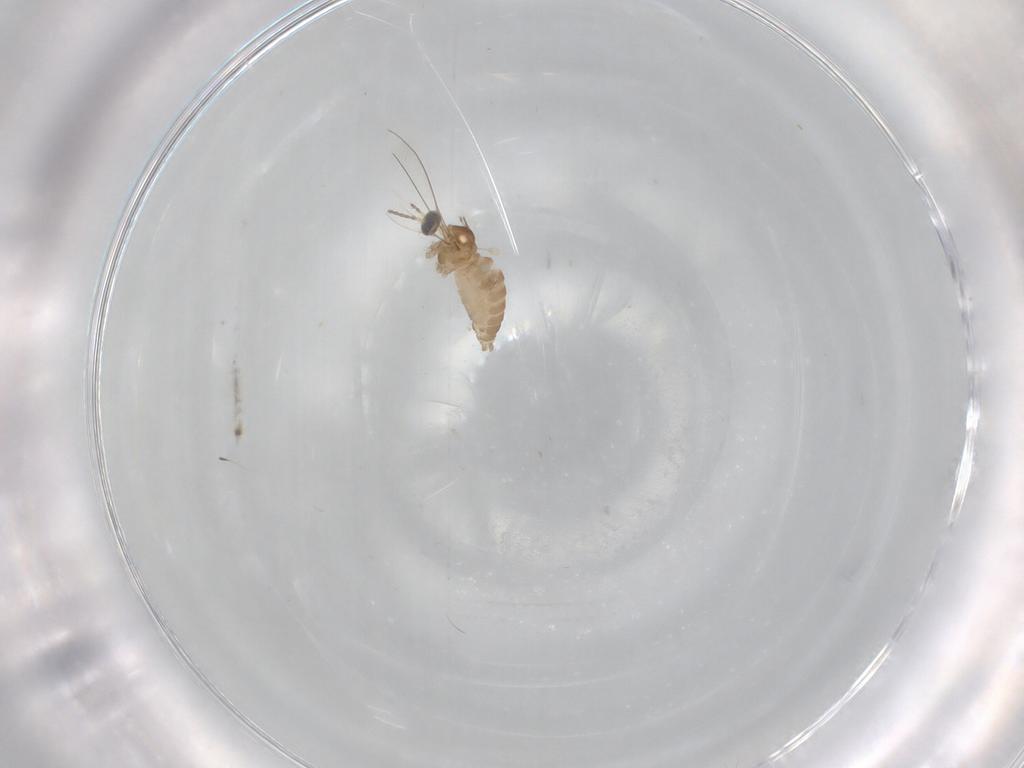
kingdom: Animalia
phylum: Arthropoda
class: Insecta
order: Diptera
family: Cecidomyiidae
